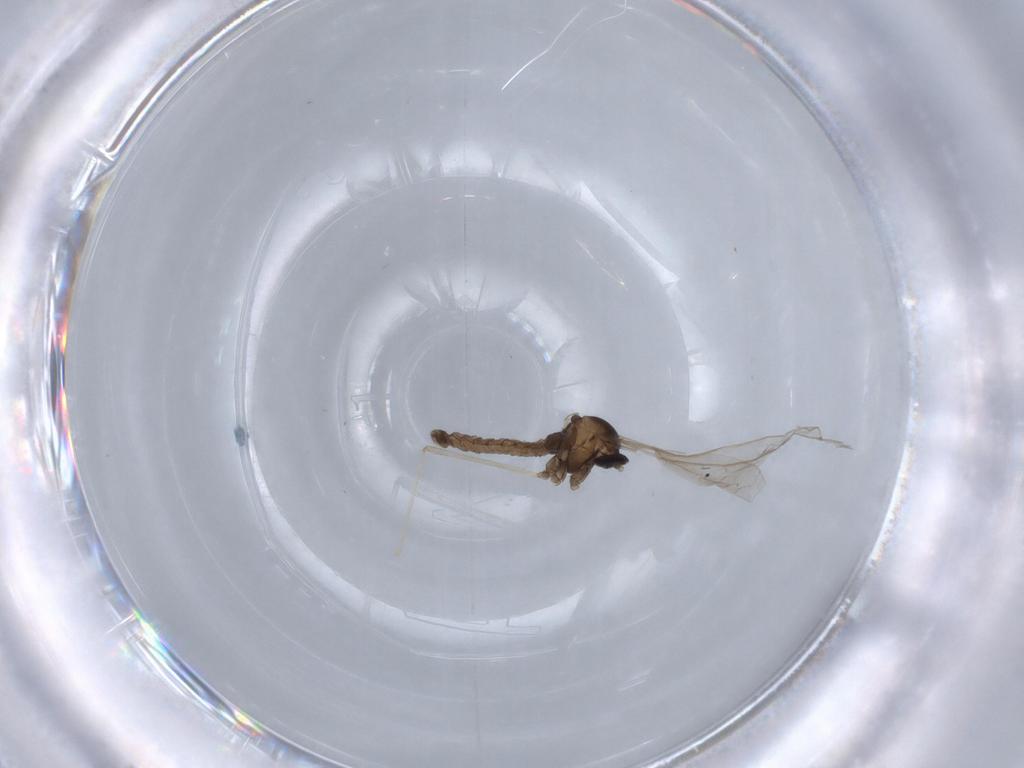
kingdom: Animalia
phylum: Arthropoda
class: Insecta
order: Diptera
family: Cecidomyiidae
